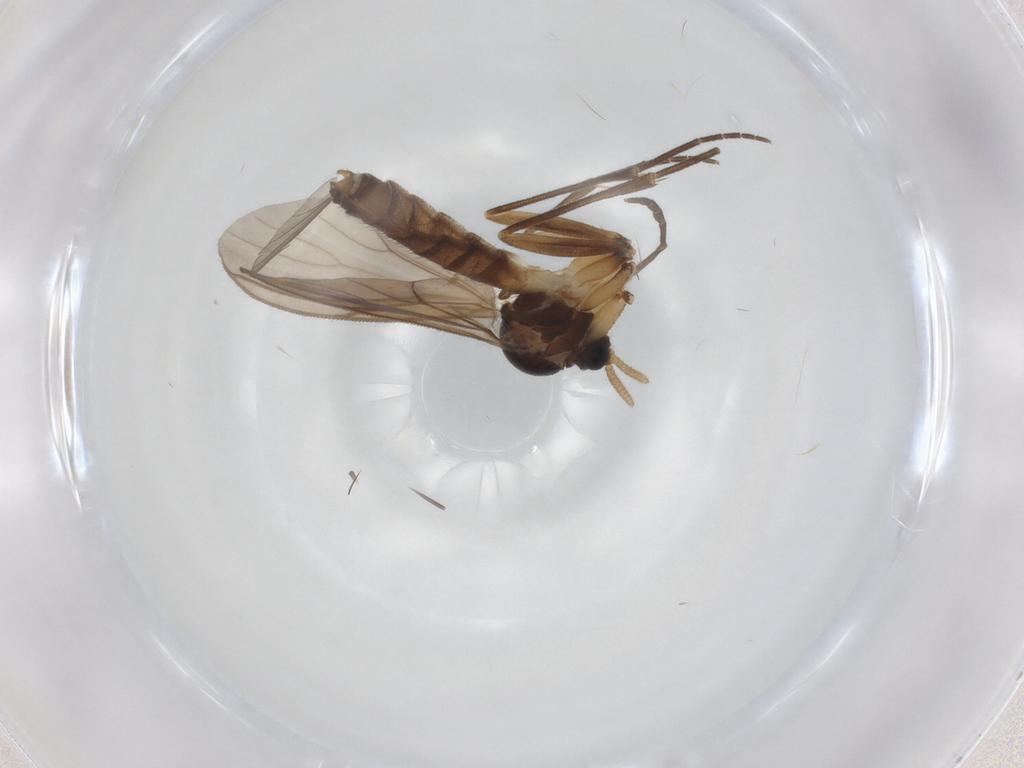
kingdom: Animalia
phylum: Arthropoda
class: Insecta
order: Diptera
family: Mycetophilidae
